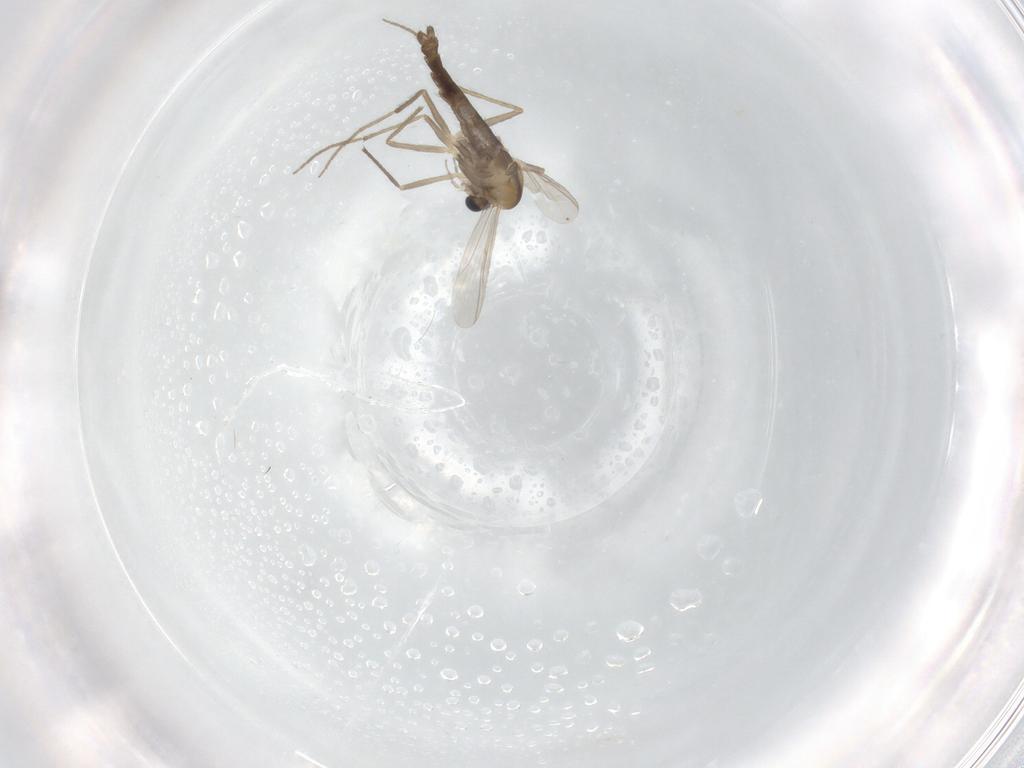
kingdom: Animalia
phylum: Arthropoda
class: Insecta
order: Diptera
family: Chironomidae
